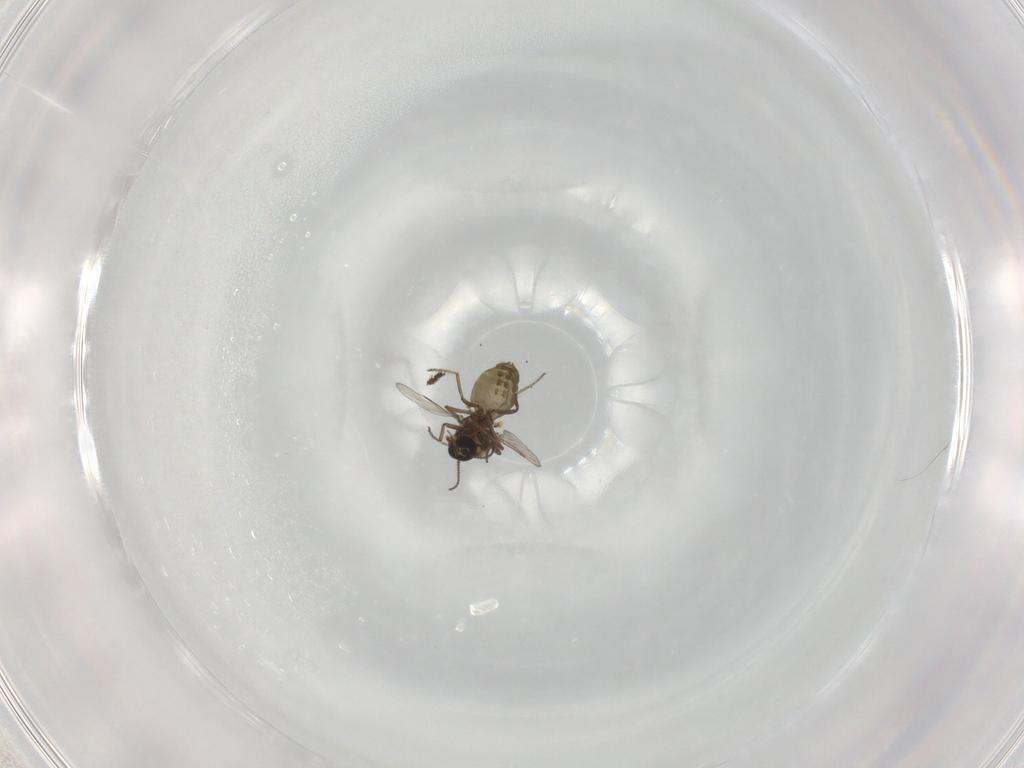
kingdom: Animalia
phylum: Arthropoda
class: Insecta
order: Diptera
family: Ceratopogonidae
